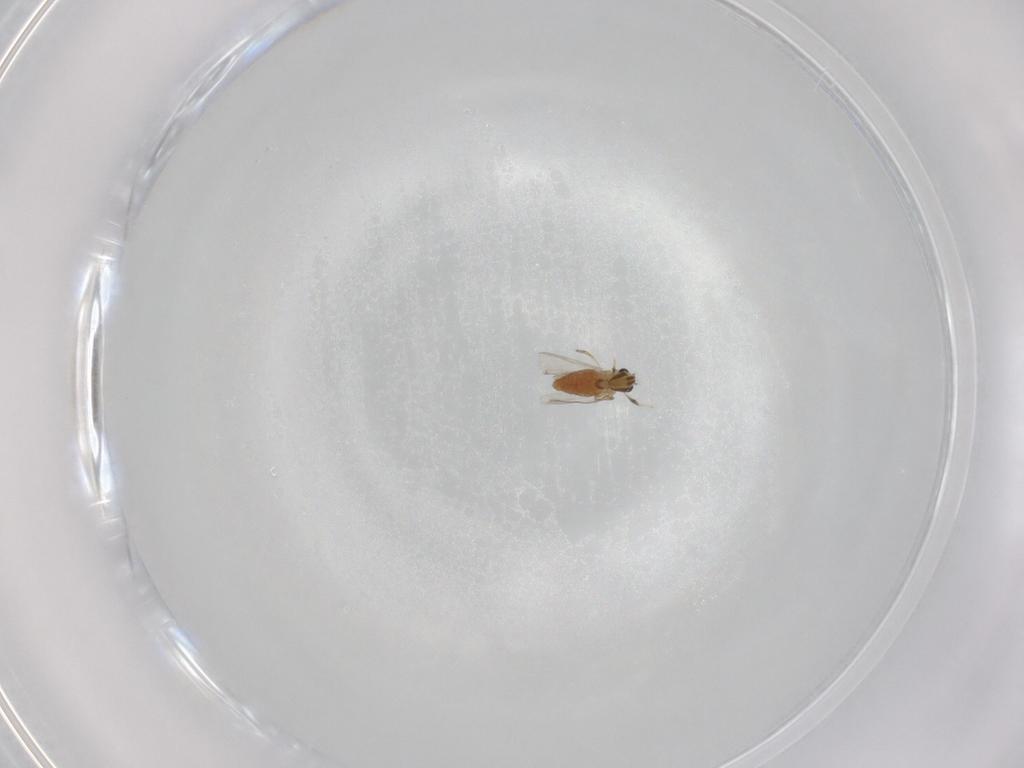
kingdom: Animalia
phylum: Arthropoda
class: Insecta
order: Diptera
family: Chironomidae
